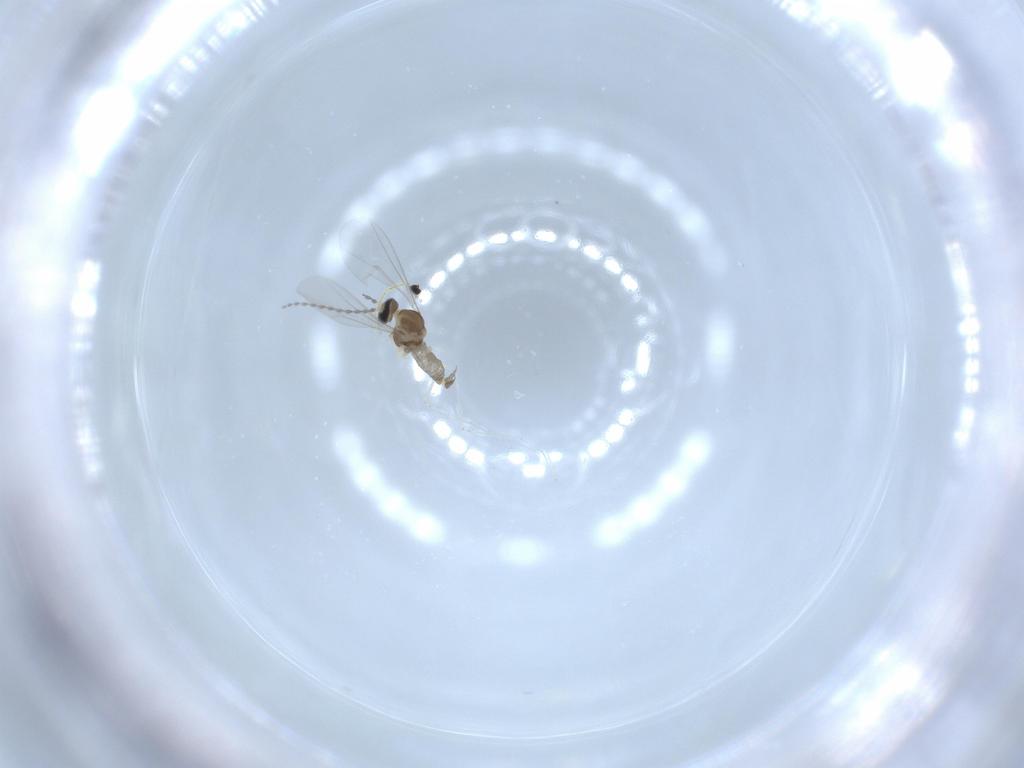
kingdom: Animalia
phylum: Arthropoda
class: Insecta
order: Diptera
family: Cecidomyiidae
